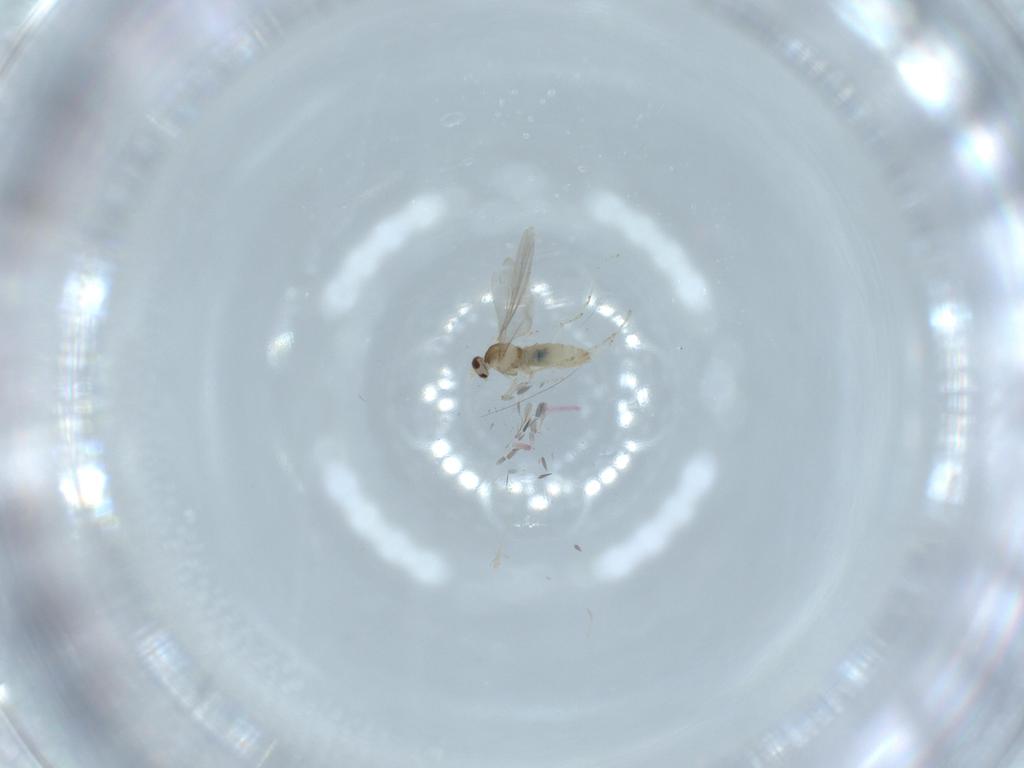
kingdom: Animalia
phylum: Arthropoda
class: Insecta
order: Diptera
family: Cecidomyiidae
